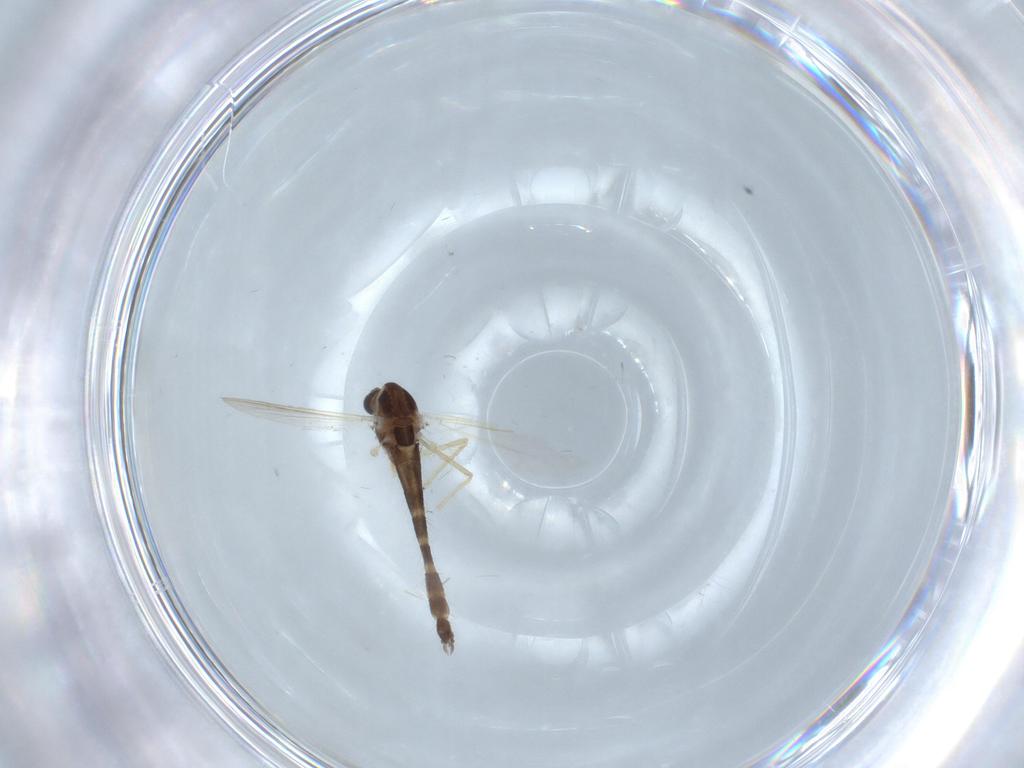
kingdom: Animalia
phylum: Arthropoda
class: Insecta
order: Diptera
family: Chironomidae
